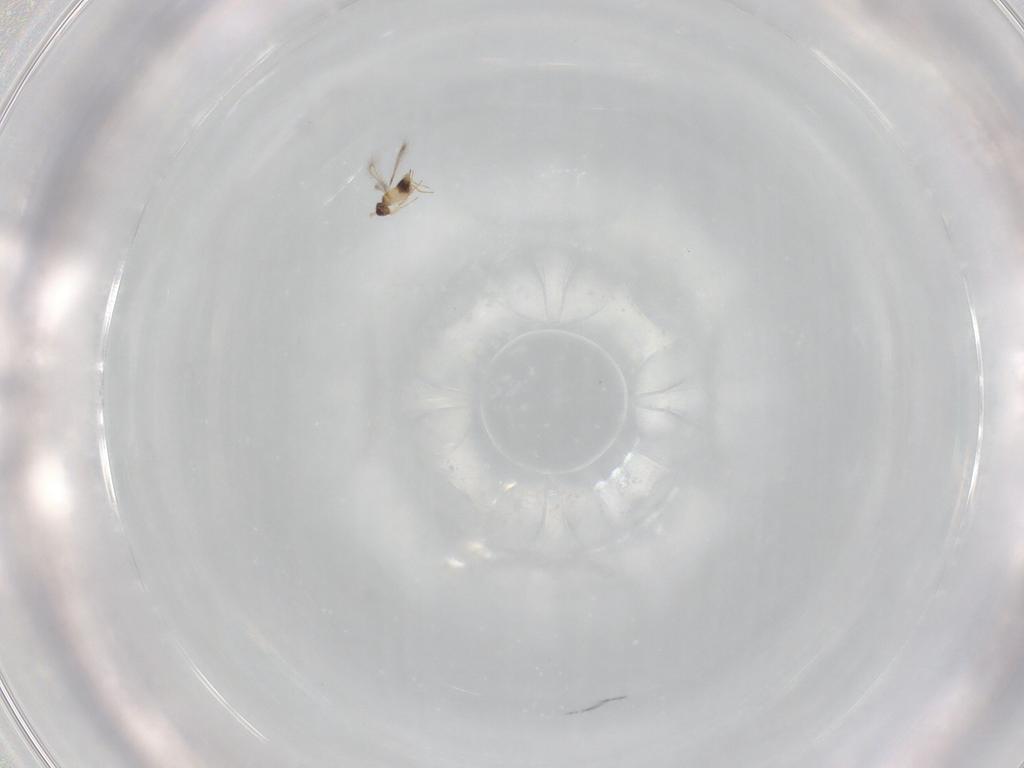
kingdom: Animalia
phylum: Arthropoda
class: Insecta
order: Hymenoptera
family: Mymaridae
